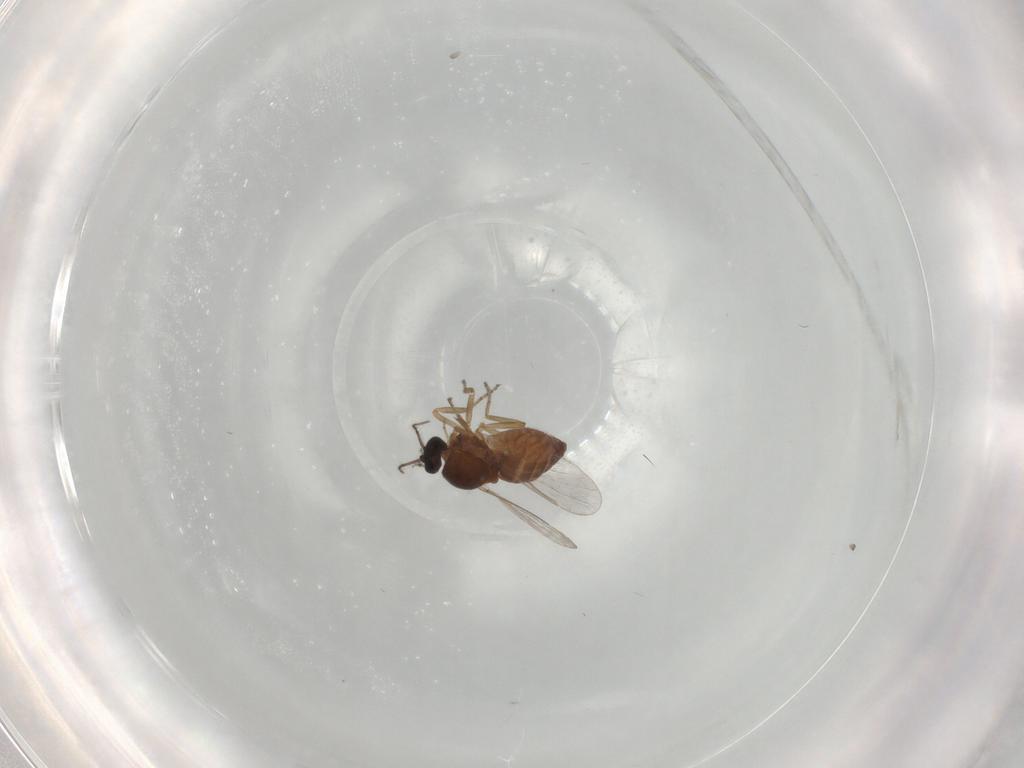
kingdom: Animalia
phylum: Arthropoda
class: Insecta
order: Diptera
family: Ceratopogonidae
